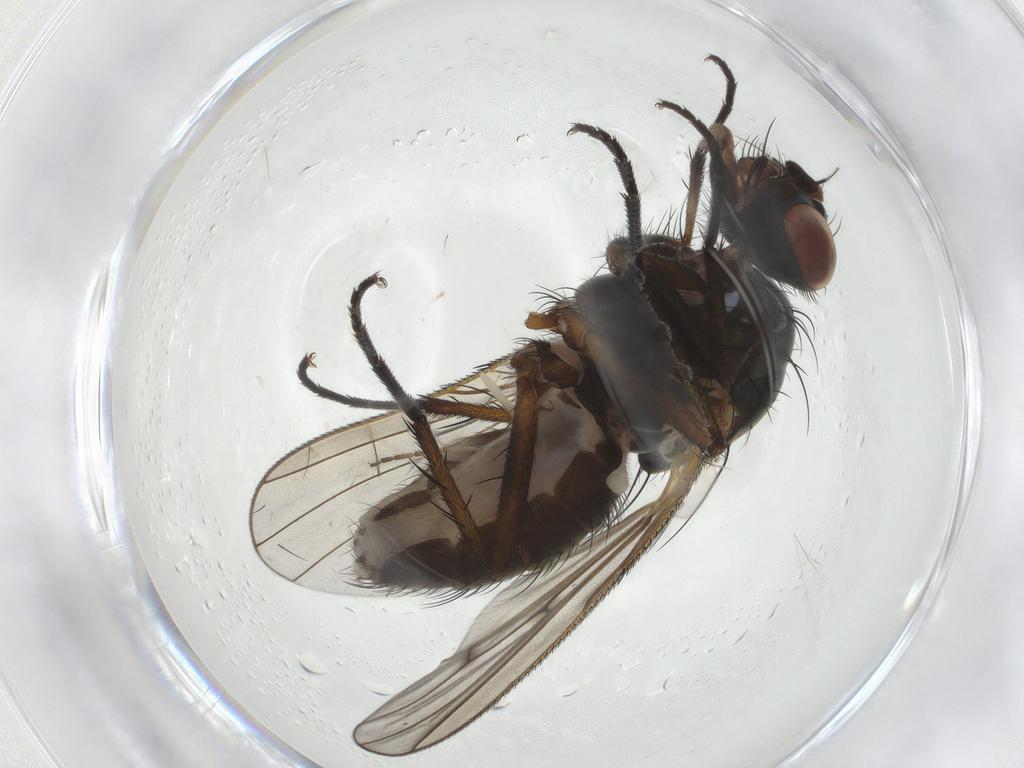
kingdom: Animalia
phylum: Arthropoda
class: Insecta
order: Diptera
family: Anthomyiidae
